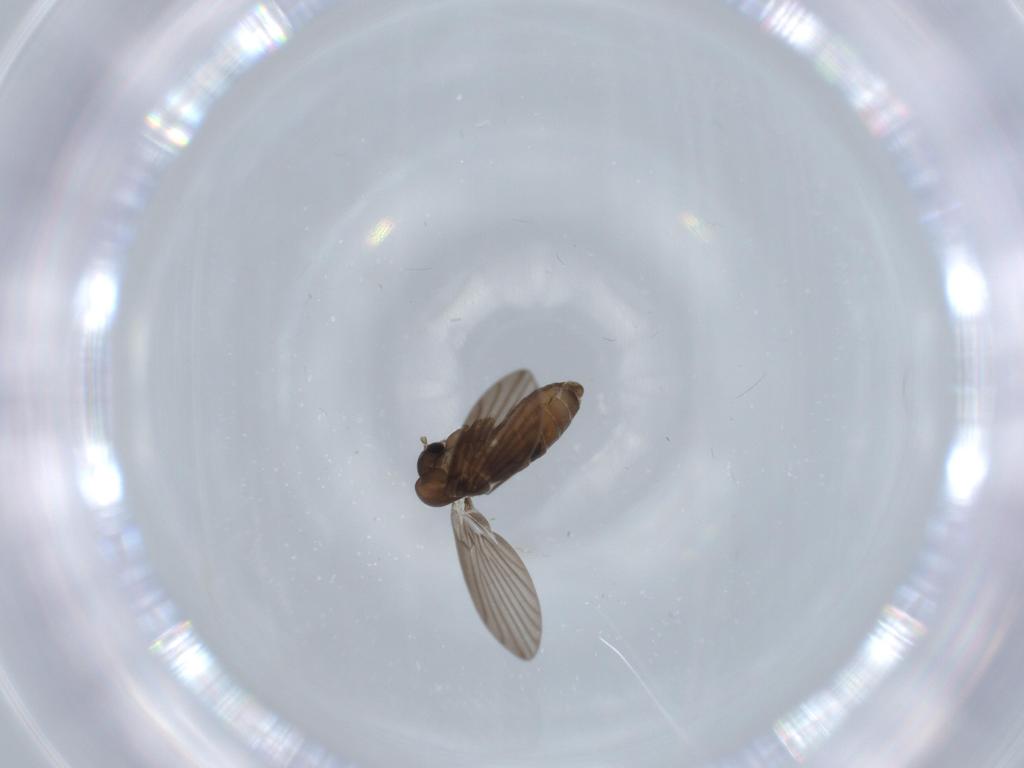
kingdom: Animalia
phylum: Arthropoda
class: Insecta
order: Diptera
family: Psychodidae
